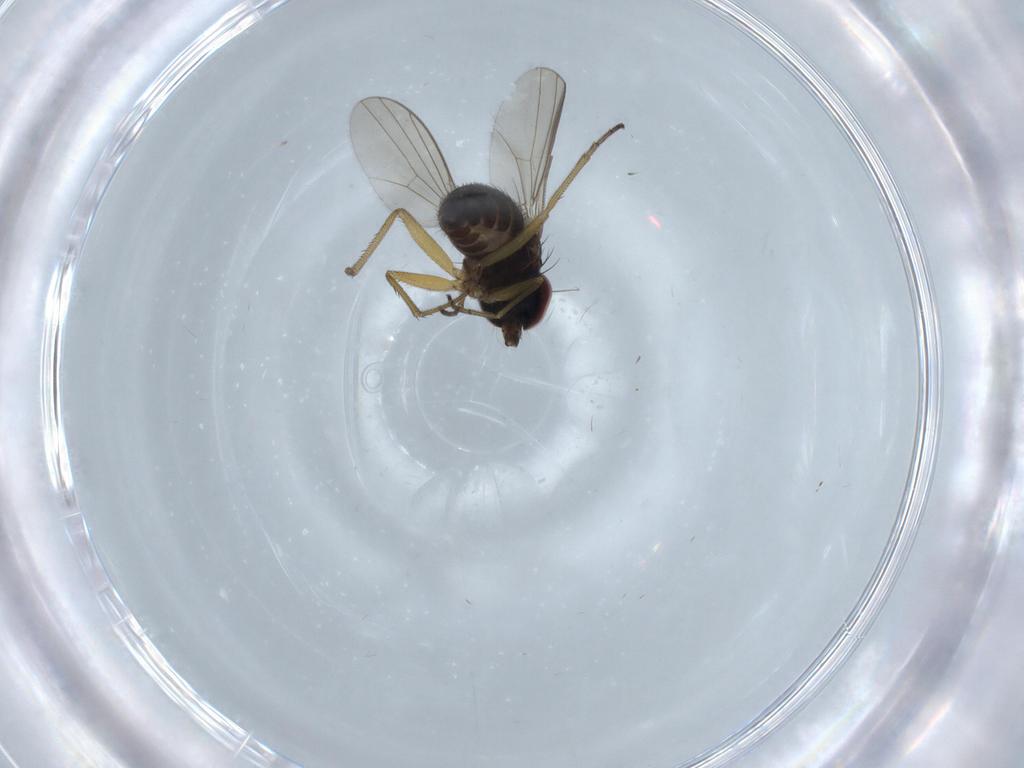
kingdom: Animalia
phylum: Arthropoda
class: Insecta
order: Diptera
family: Dolichopodidae
